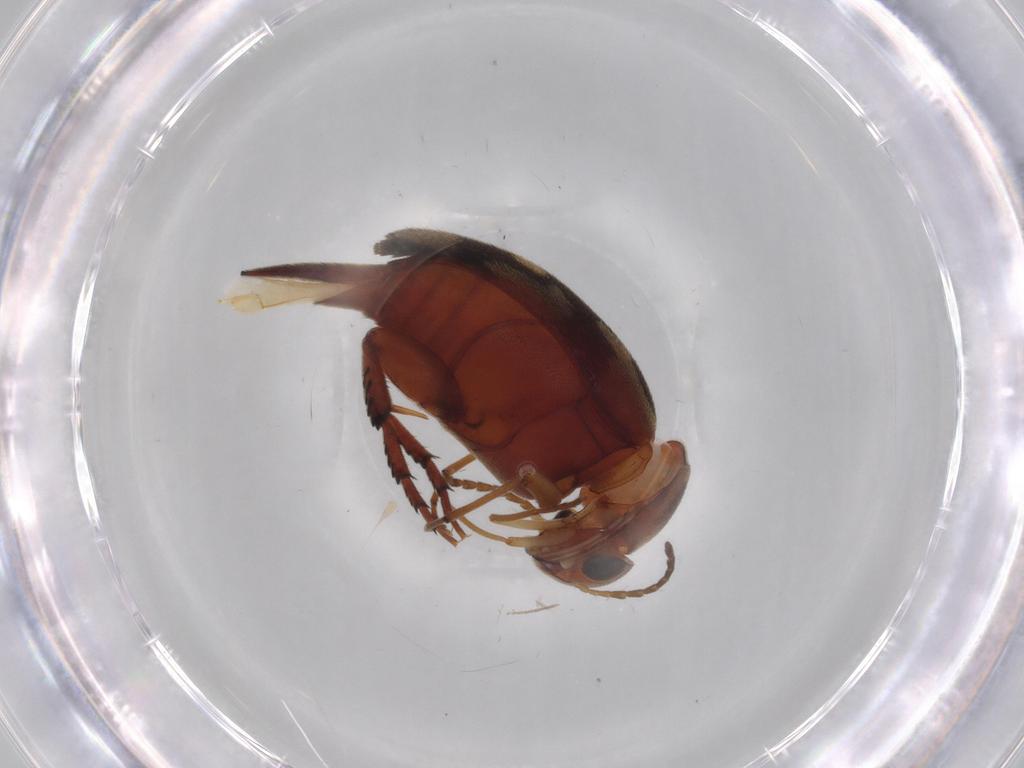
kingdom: Animalia
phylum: Arthropoda
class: Insecta
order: Coleoptera
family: Mordellidae
